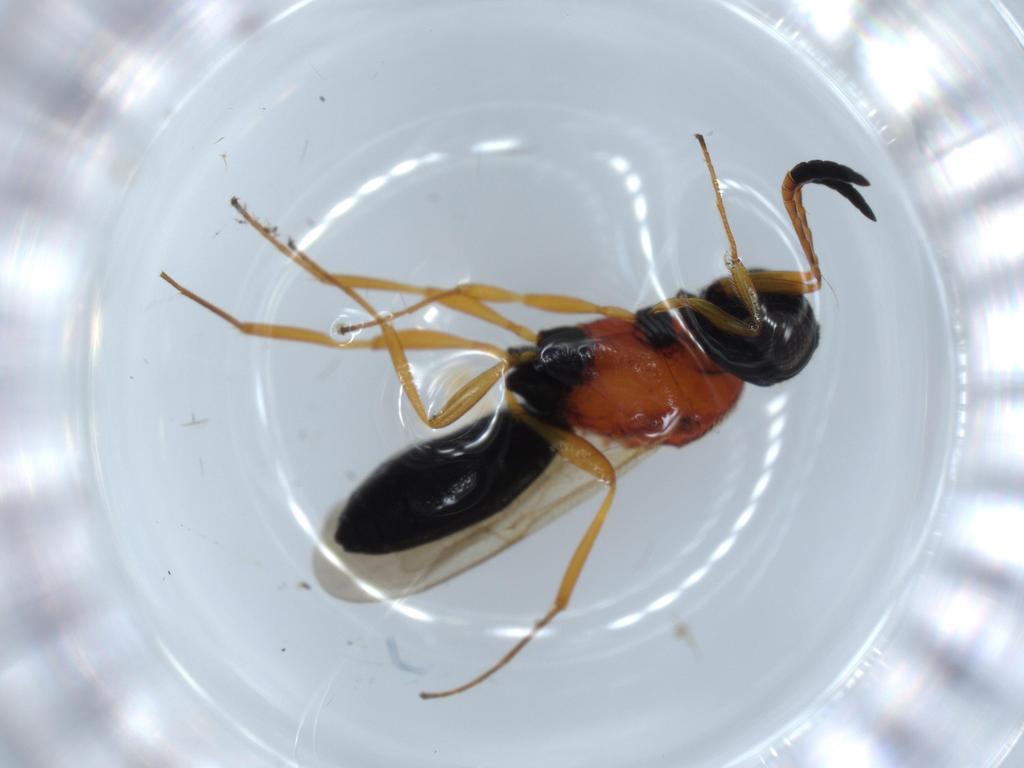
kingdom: Animalia
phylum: Arthropoda
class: Insecta
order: Hymenoptera
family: Scelionidae
